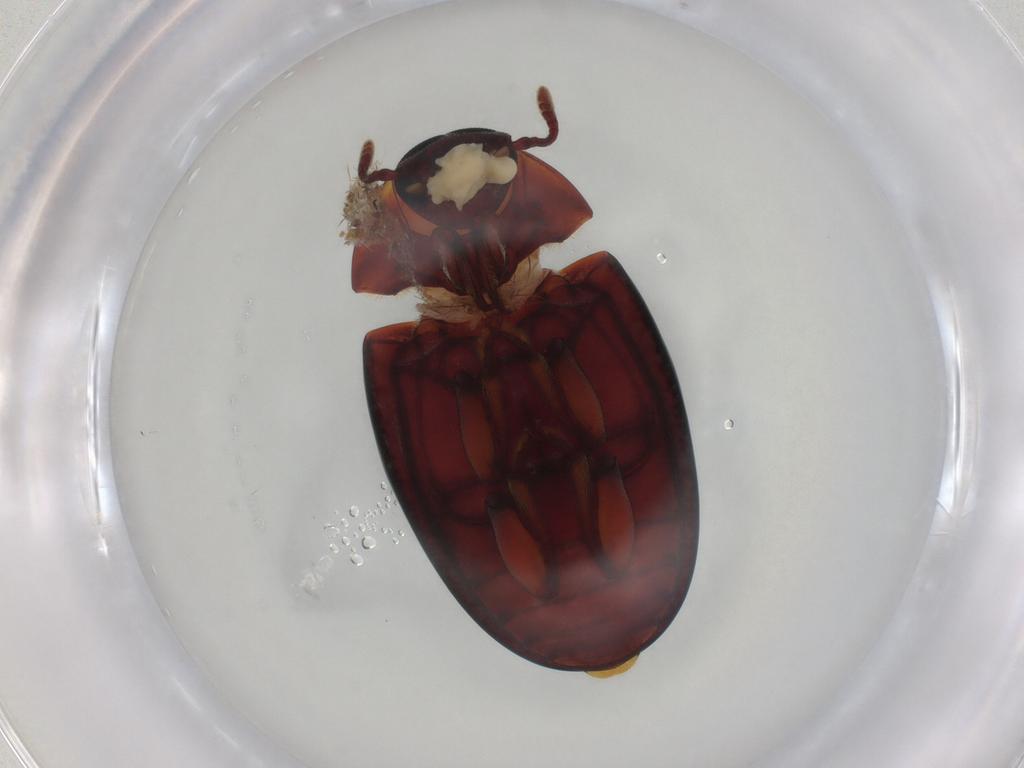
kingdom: Animalia
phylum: Arthropoda
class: Insecta
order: Coleoptera
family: Zopheridae
